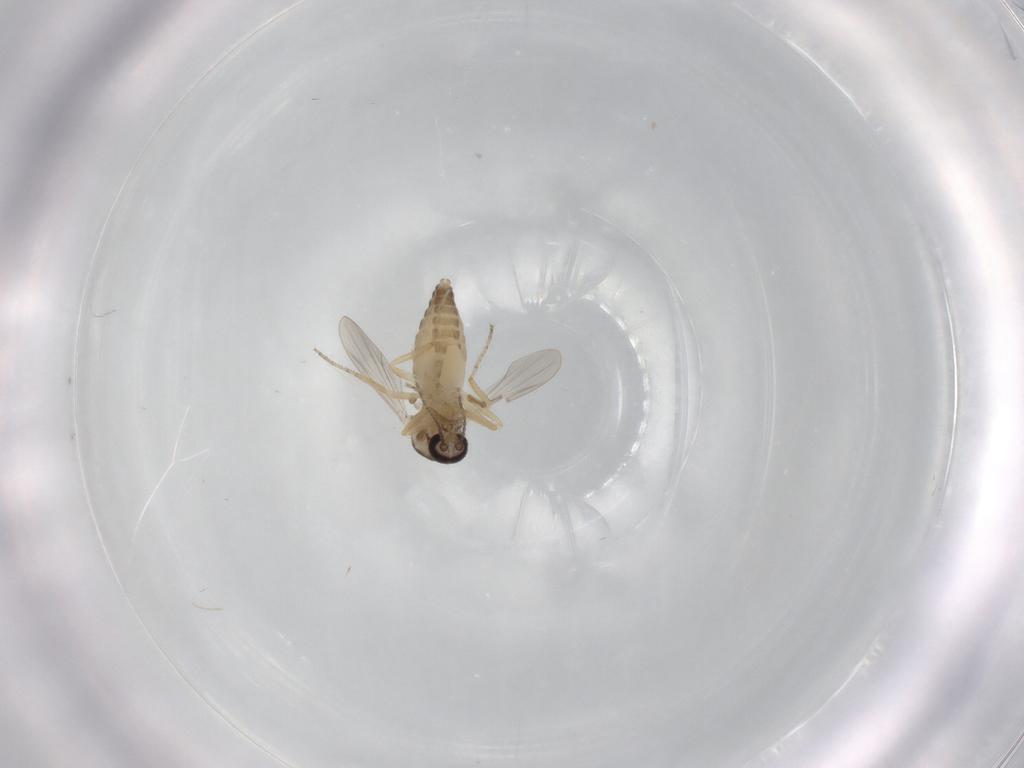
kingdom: Animalia
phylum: Arthropoda
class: Insecta
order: Diptera
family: Ceratopogonidae
